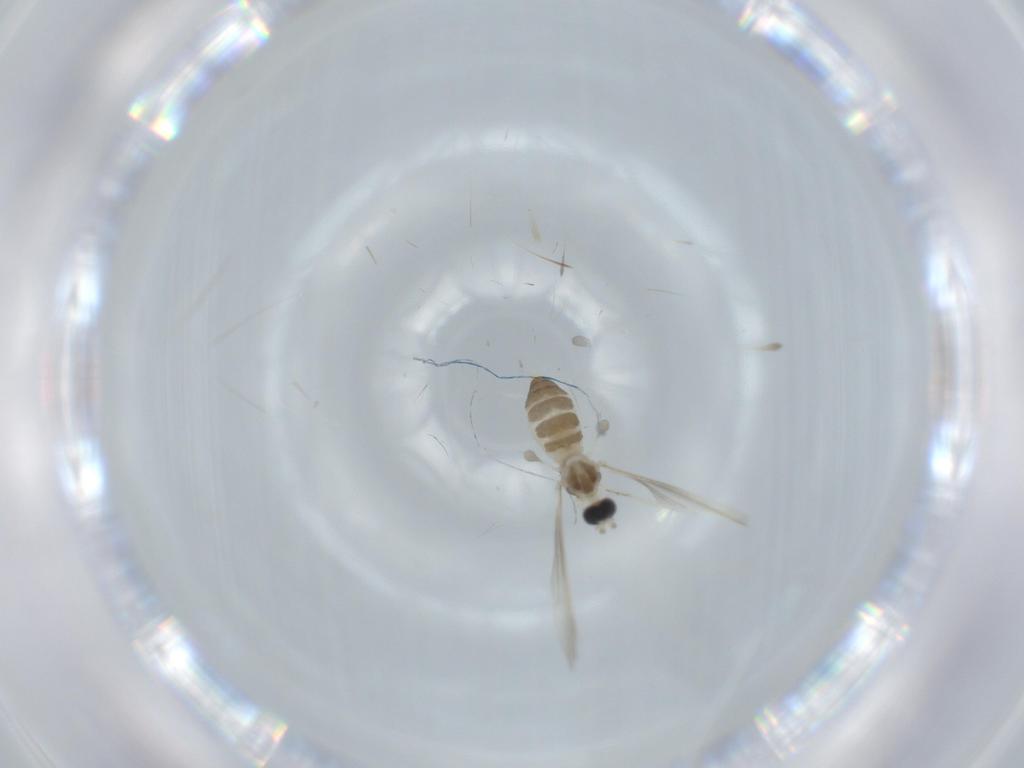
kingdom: Animalia
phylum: Arthropoda
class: Insecta
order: Diptera
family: Cecidomyiidae
